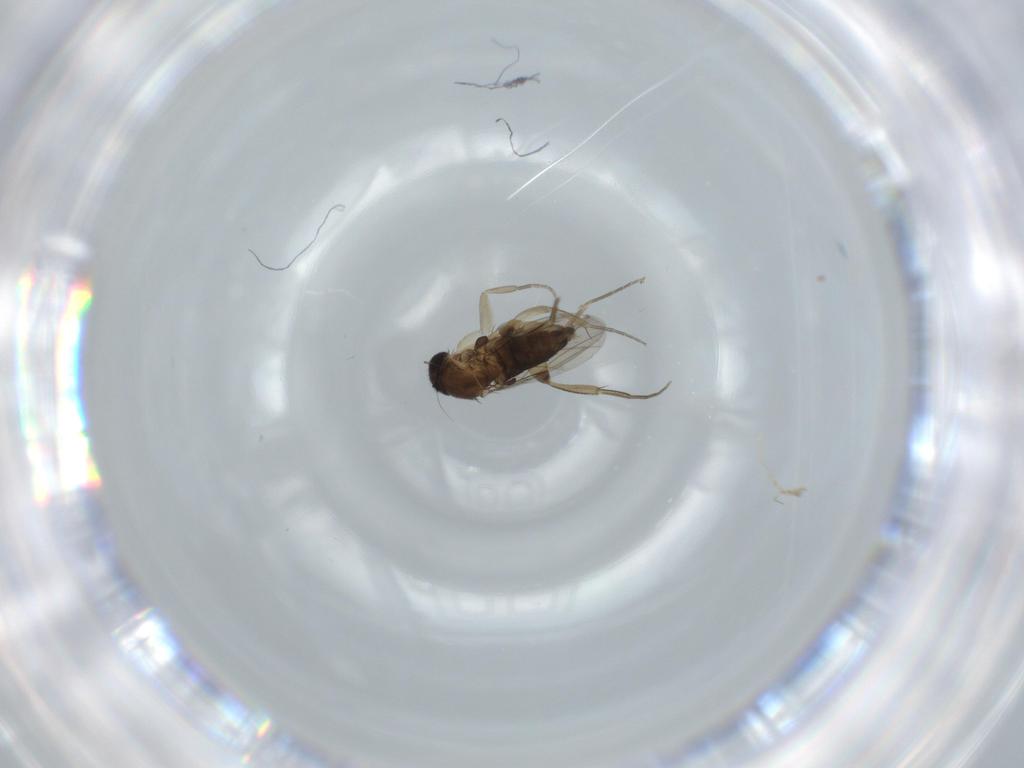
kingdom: Animalia
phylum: Arthropoda
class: Insecta
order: Diptera
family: Phoridae
